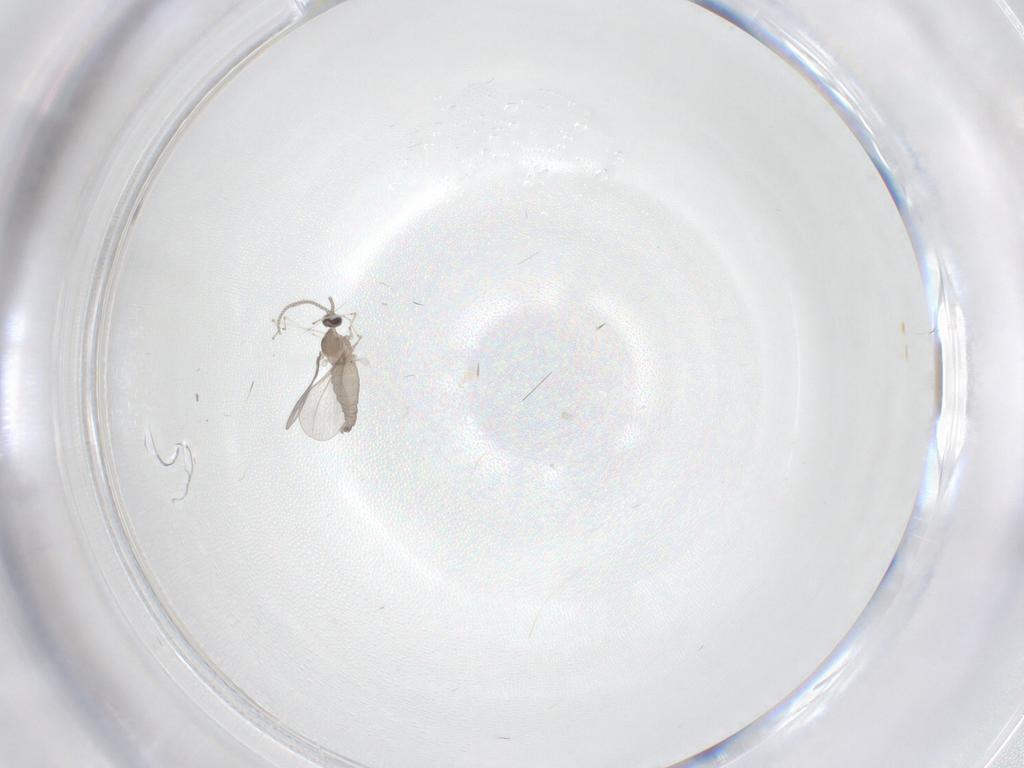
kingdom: Animalia
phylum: Arthropoda
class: Insecta
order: Diptera
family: Cecidomyiidae
